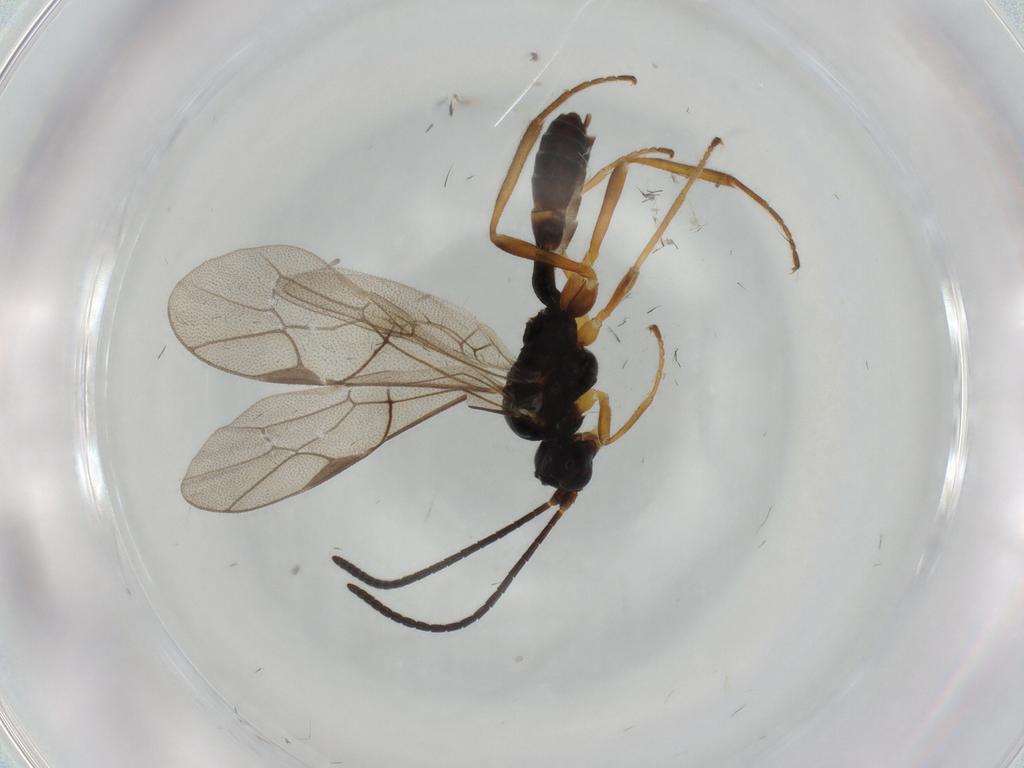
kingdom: Animalia
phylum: Arthropoda
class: Insecta
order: Hymenoptera
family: Ichneumonidae
